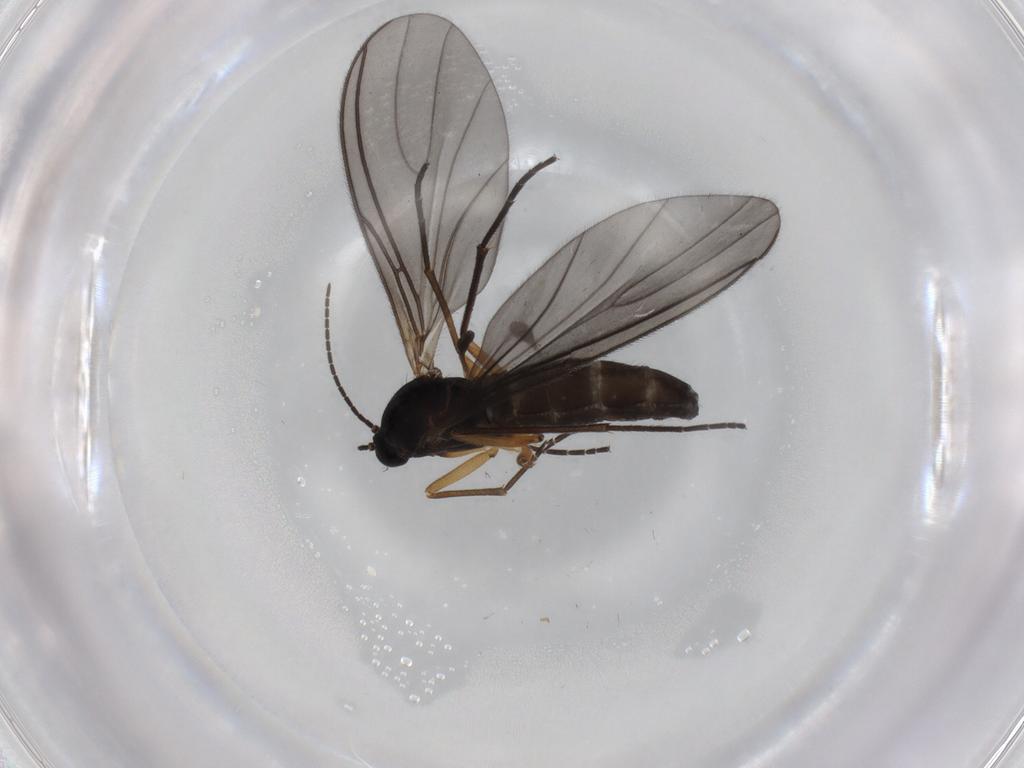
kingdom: Animalia
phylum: Arthropoda
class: Insecta
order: Diptera
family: Sciaridae
